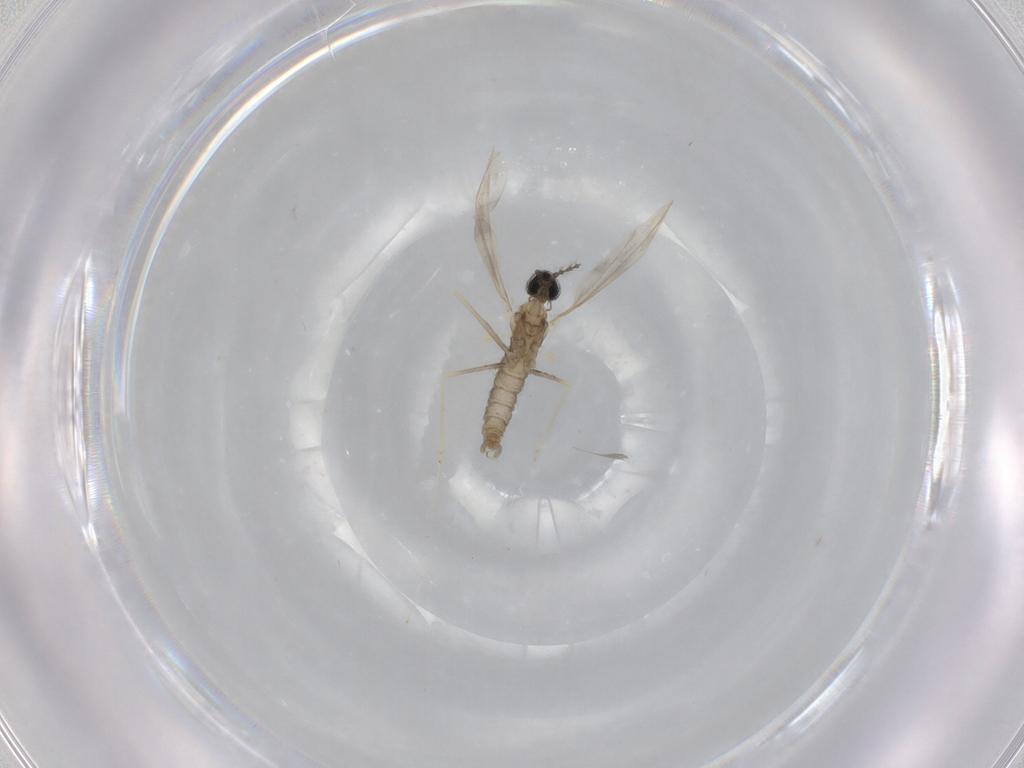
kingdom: Animalia
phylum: Arthropoda
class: Insecta
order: Diptera
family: Cecidomyiidae
